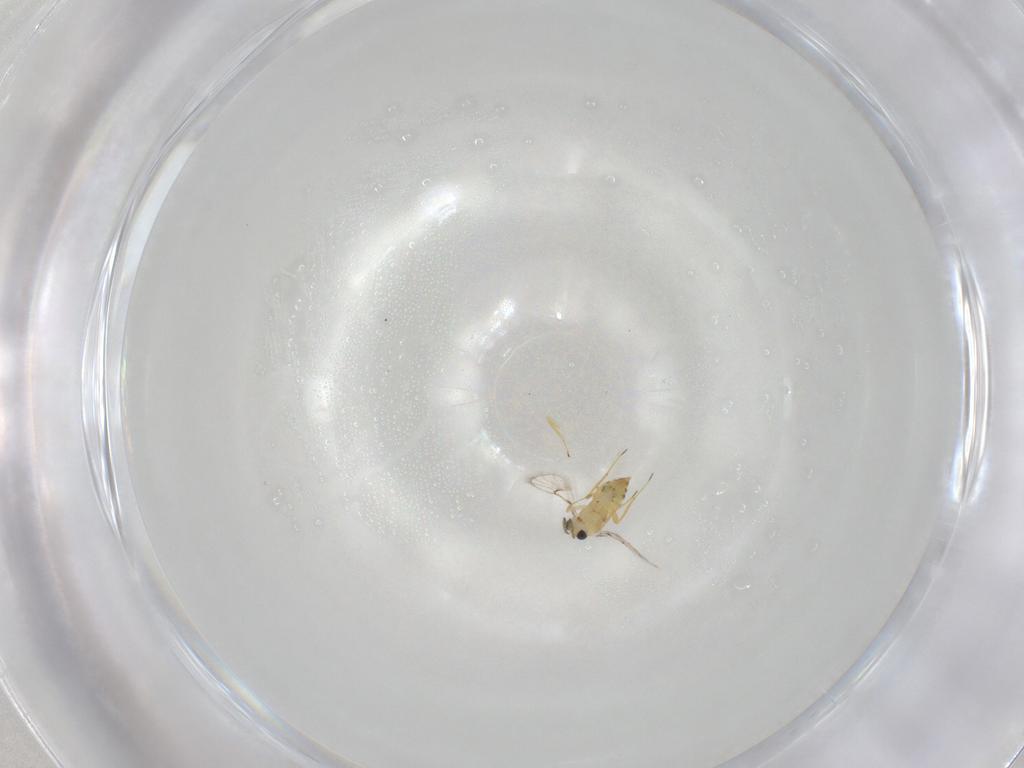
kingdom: Animalia
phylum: Arthropoda
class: Insecta
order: Hymenoptera
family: Trichogrammatidae
